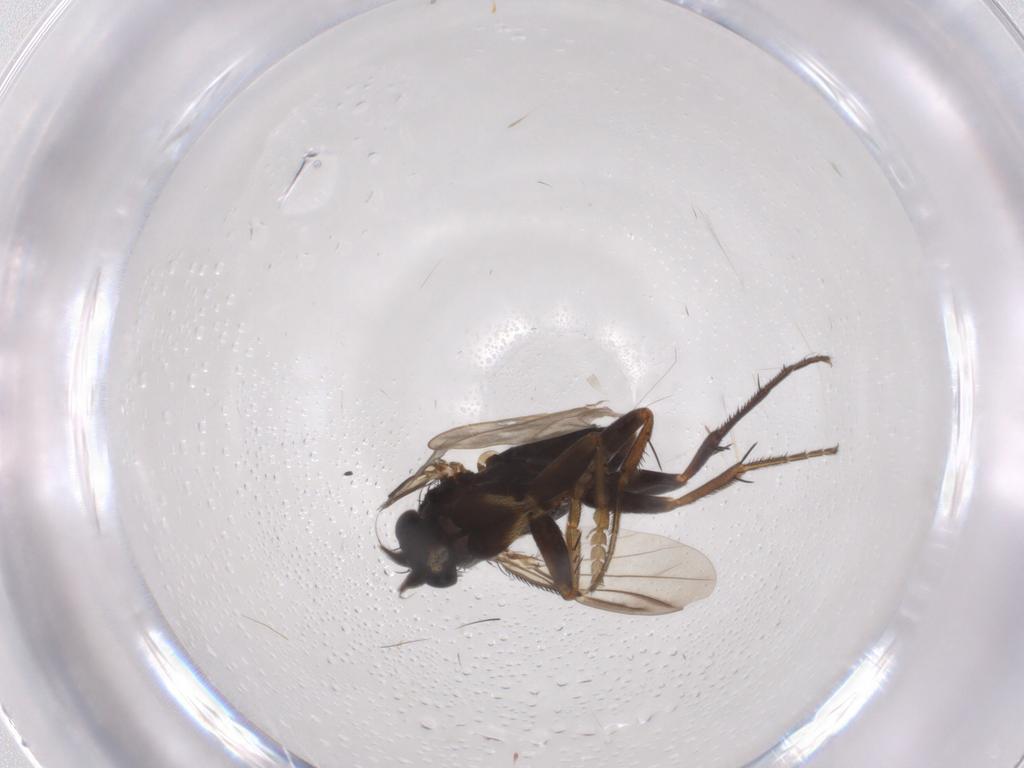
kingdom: Animalia
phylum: Arthropoda
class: Insecta
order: Diptera
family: Phoridae
